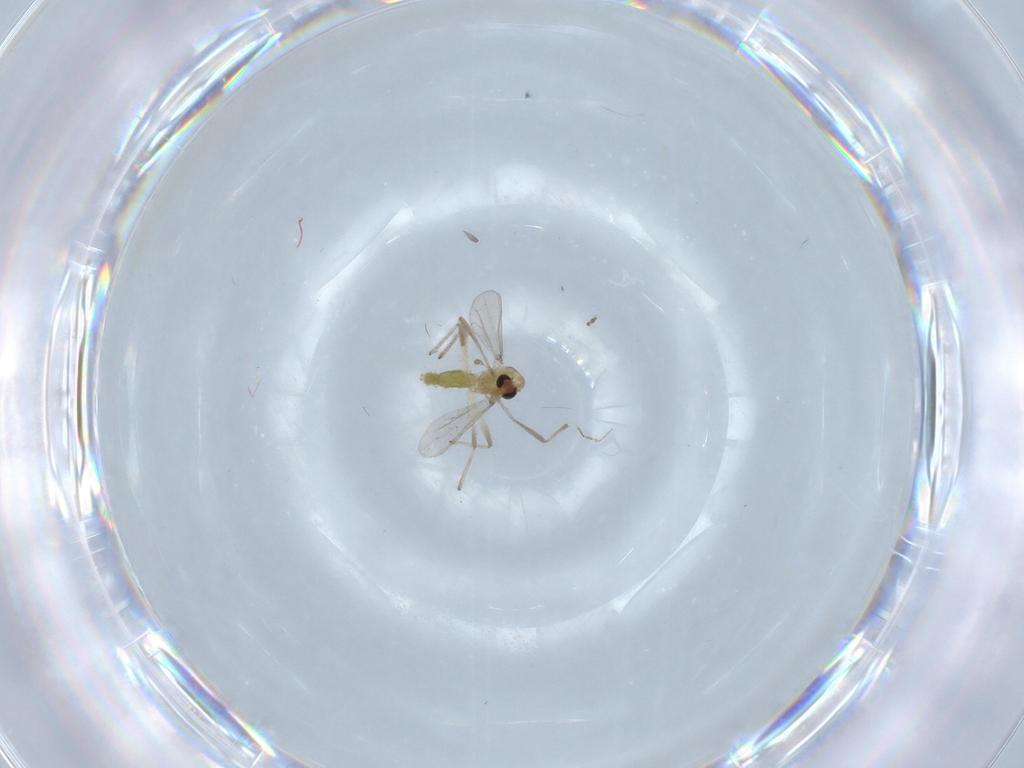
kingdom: Animalia
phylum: Arthropoda
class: Insecta
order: Diptera
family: Chironomidae
